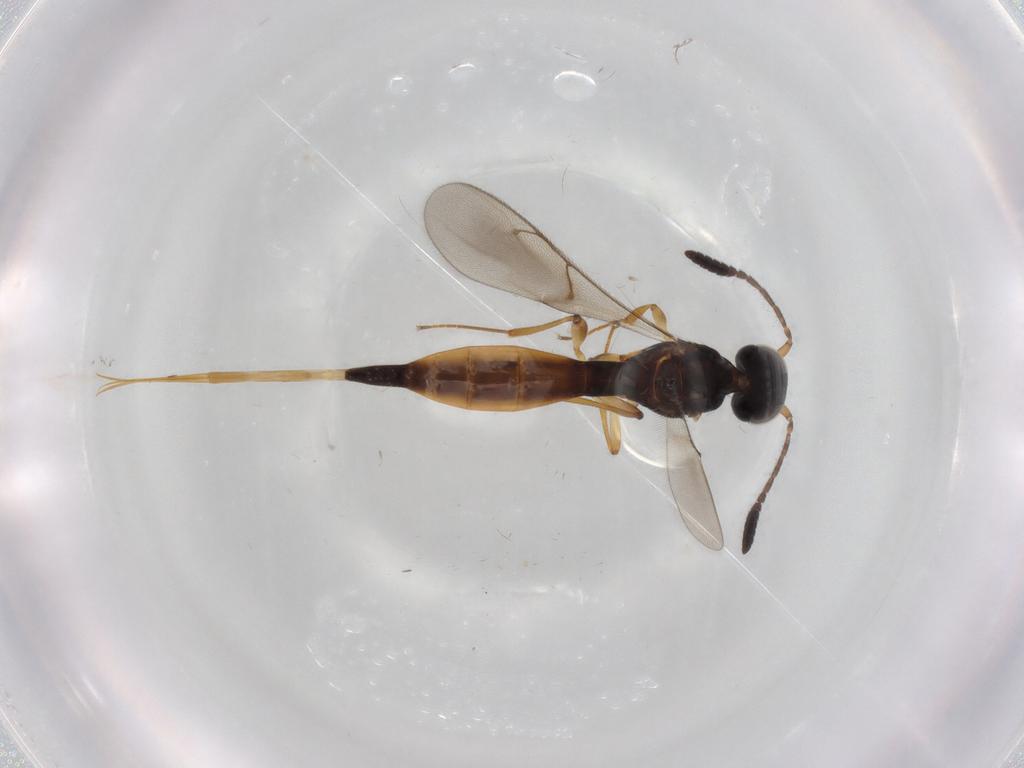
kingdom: Animalia
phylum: Arthropoda
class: Insecta
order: Hymenoptera
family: Scelionidae
